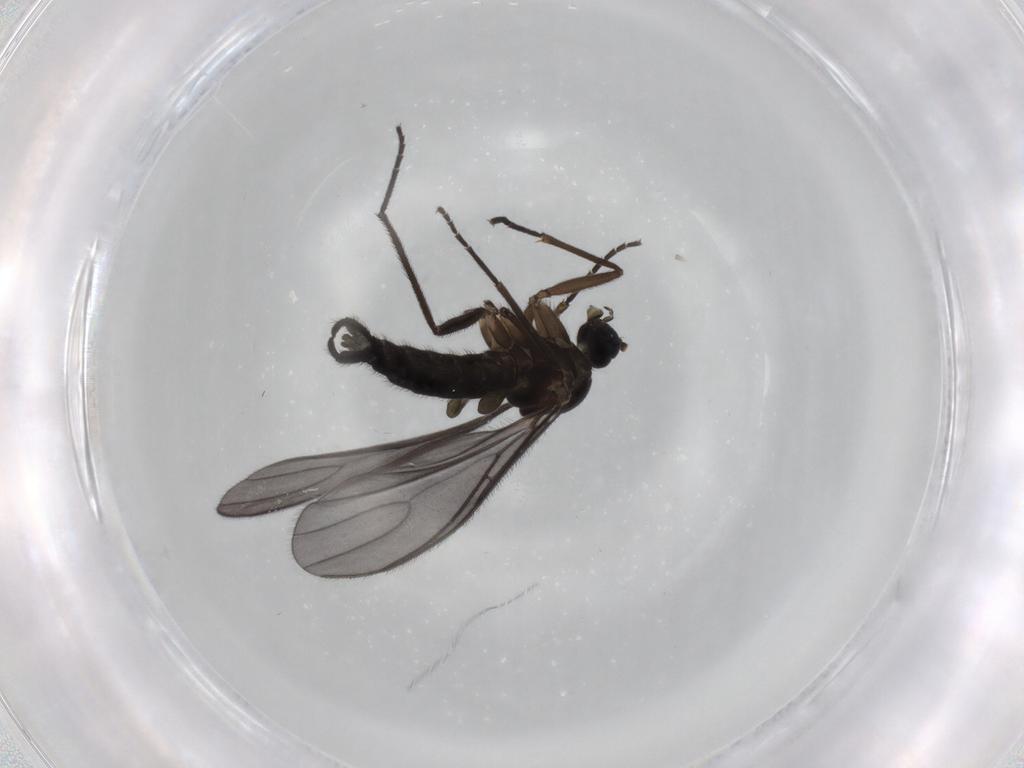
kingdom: Animalia
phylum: Arthropoda
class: Insecta
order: Diptera
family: Sciaridae
